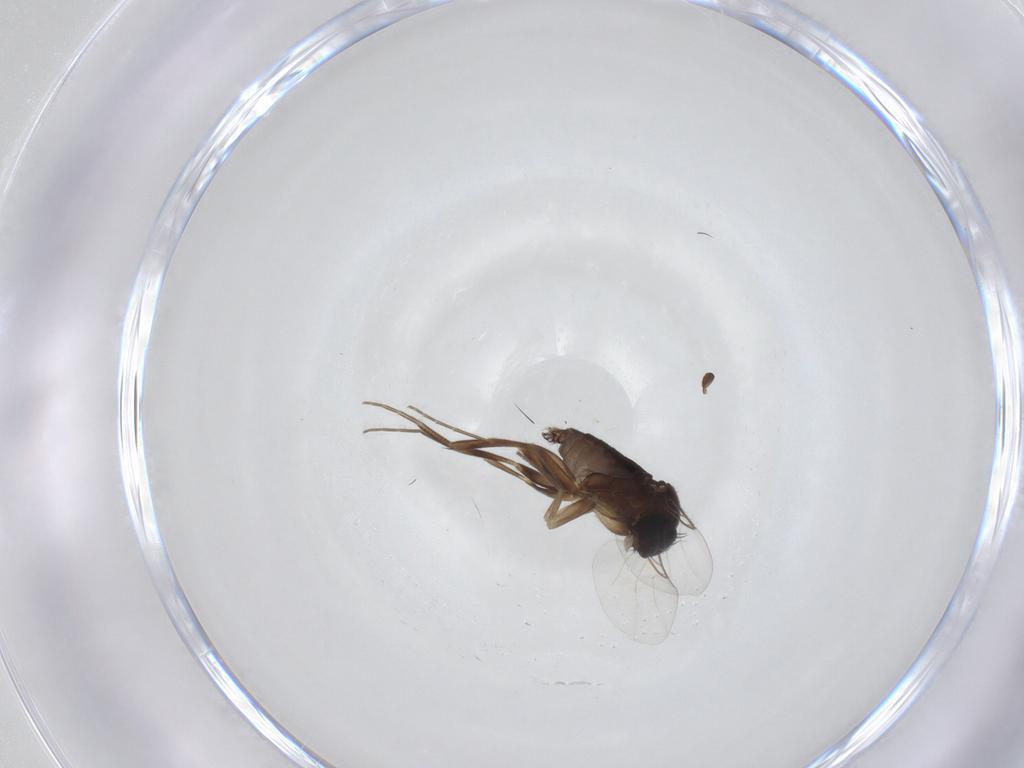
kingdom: Animalia
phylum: Arthropoda
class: Insecta
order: Diptera
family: Phoridae
